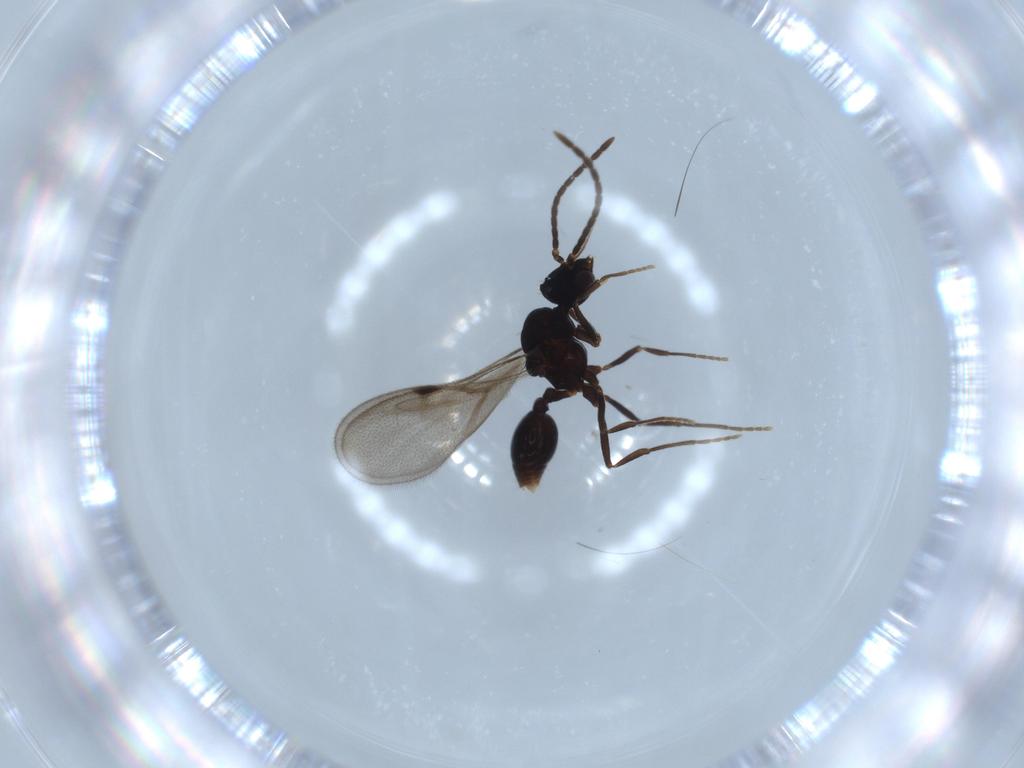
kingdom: Animalia
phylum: Arthropoda
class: Insecta
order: Hymenoptera
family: Formicidae
